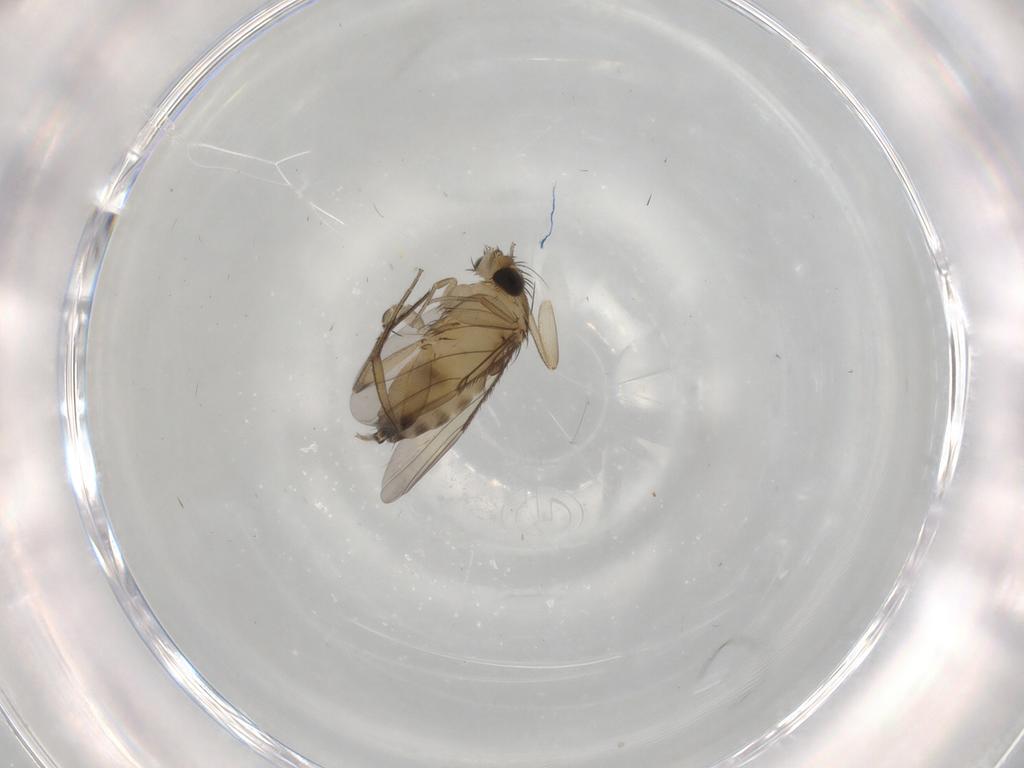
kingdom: Animalia
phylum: Arthropoda
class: Insecta
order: Diptera
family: Phoridae
